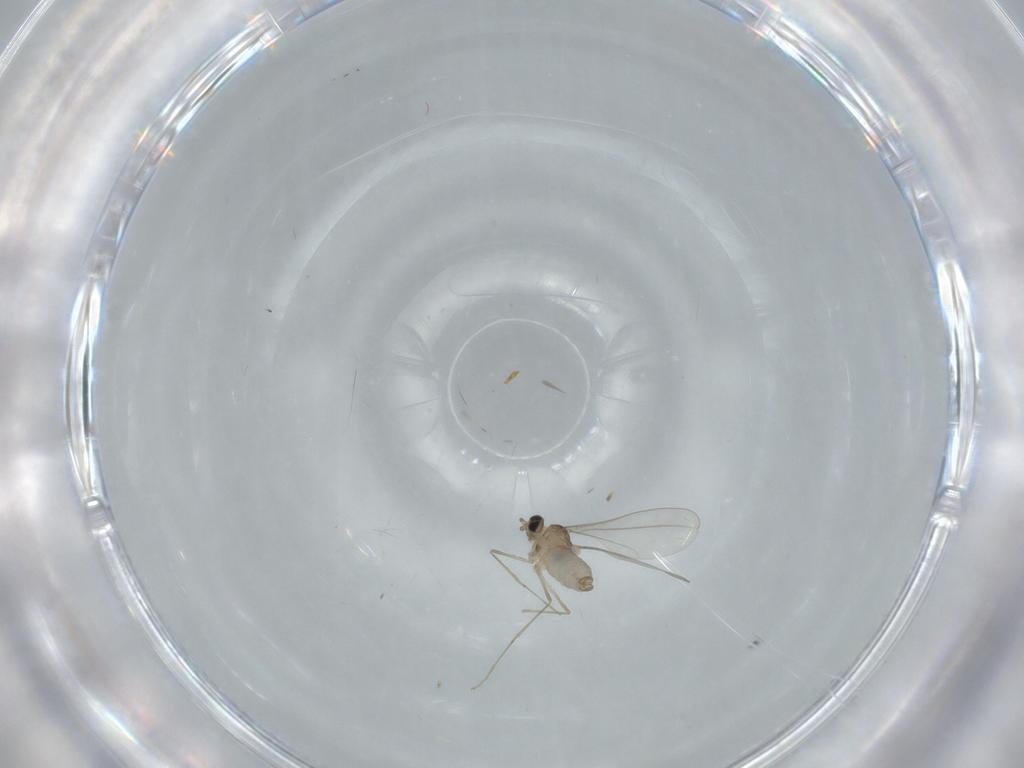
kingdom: Animalia
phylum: Arthropoda
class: Insecta
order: Diptera
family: Cecidomyiidae
